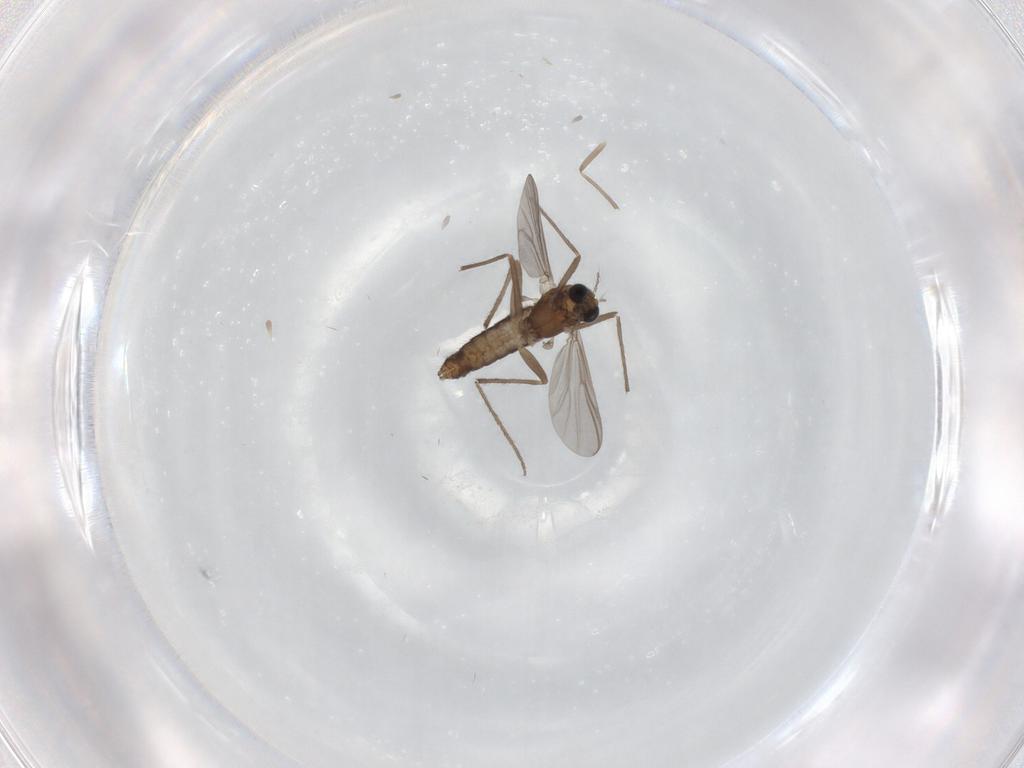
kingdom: Animalia
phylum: Arthropoda
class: Insecta
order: Diptera
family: Chironomidae
